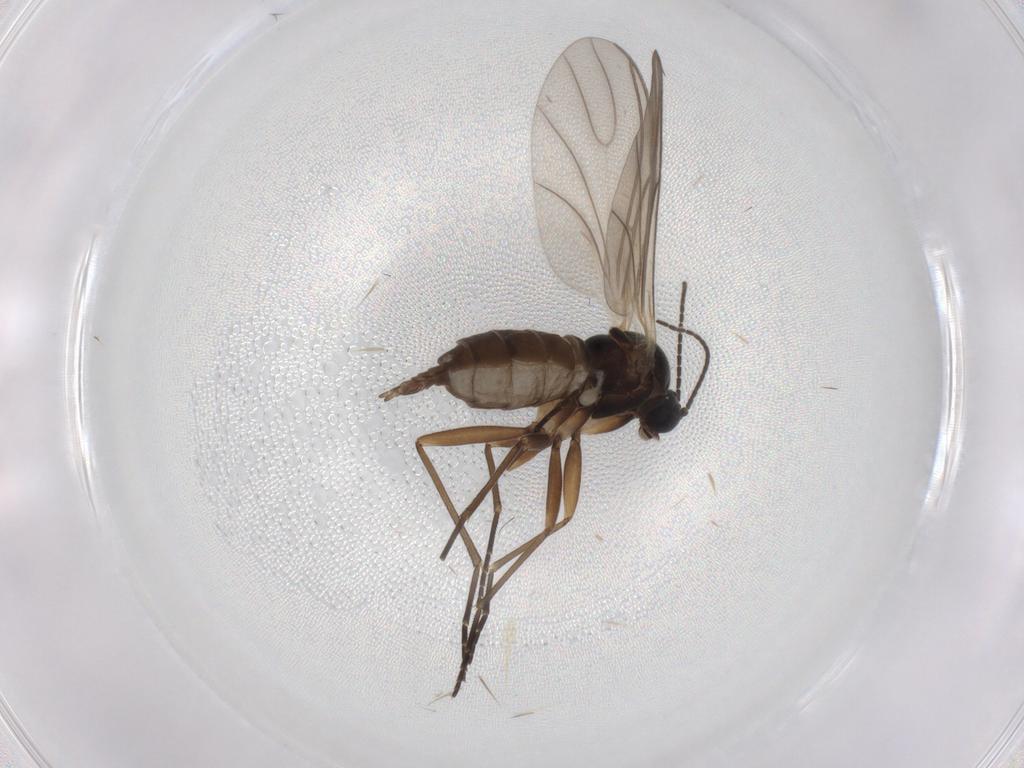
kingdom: Animalia
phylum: Arthropoda
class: Insecta
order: Diptera
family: Sciaridae
